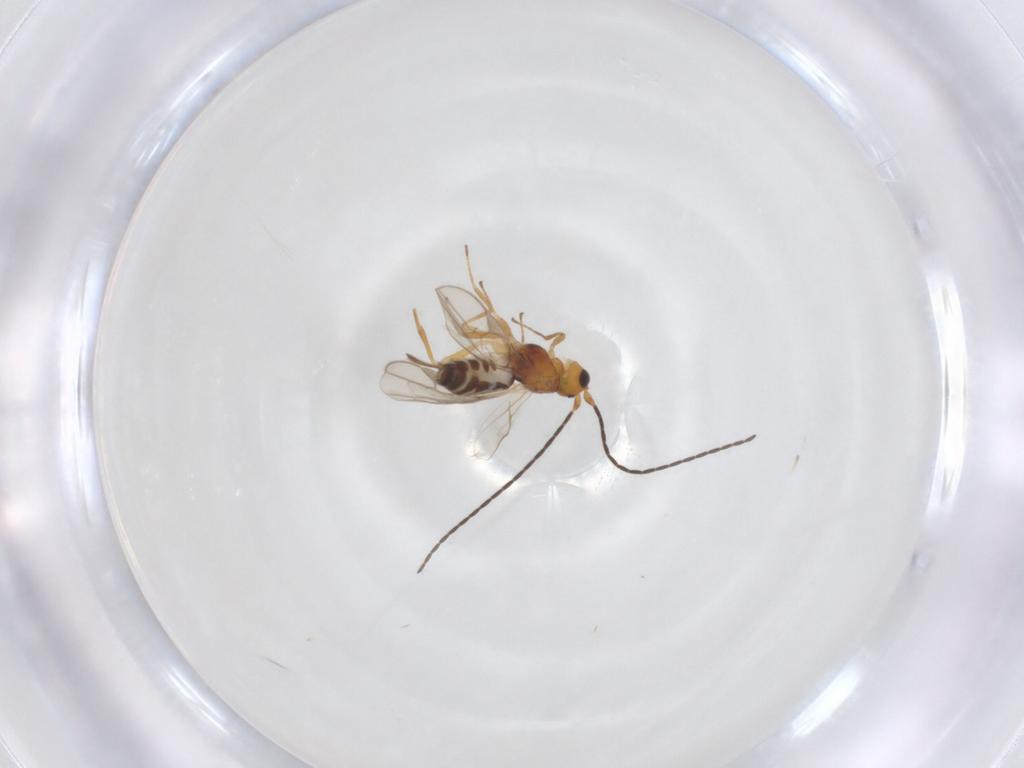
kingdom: Animalia
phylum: Arthropoda
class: Insecta
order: Hymenoptera
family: Braconidae
